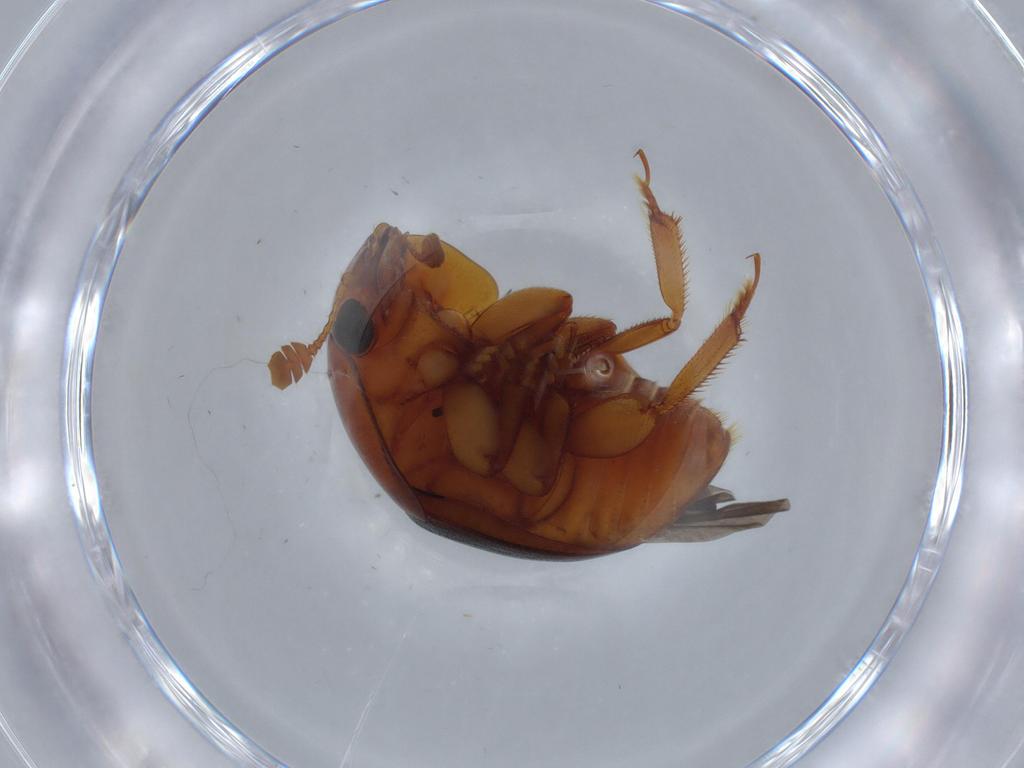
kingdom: Animalia
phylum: Arthropoda
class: Insecta
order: Coleoptera
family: Nitidulidae
